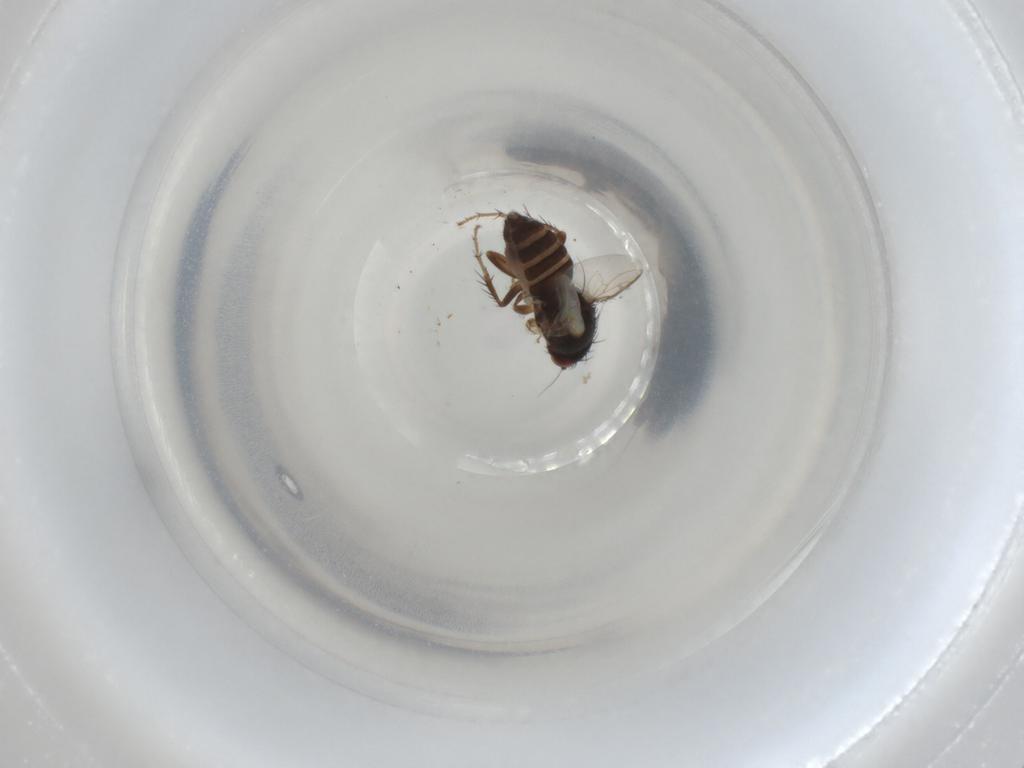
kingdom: Animalia
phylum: Arthropoda
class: Insecta
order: Diptera
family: Sphaeroceridae
